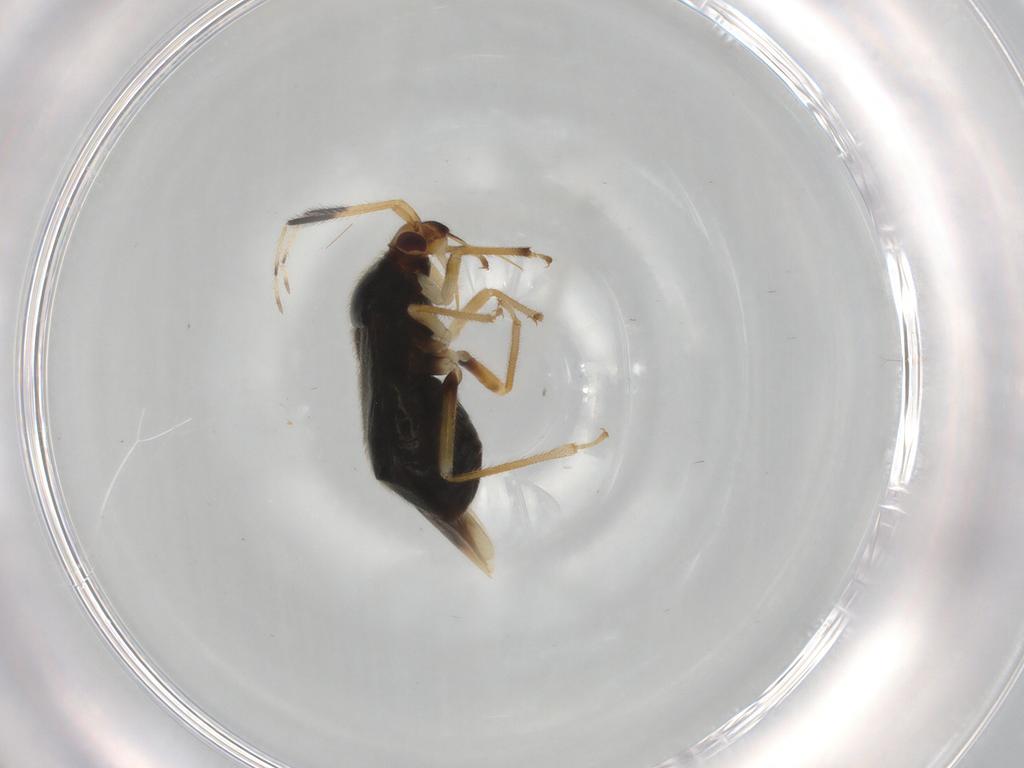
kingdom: Animalia
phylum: Arthropoda
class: Insecta
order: Hemiptera
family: Miridae
